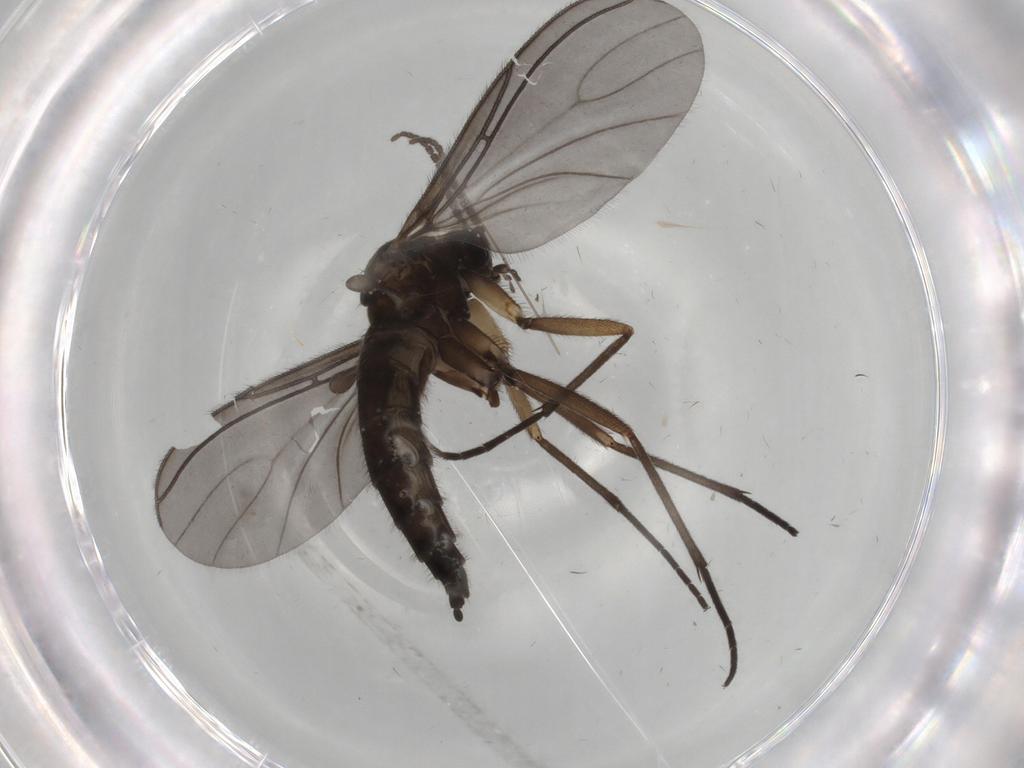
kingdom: Animalia
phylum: Arthropoda
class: Insecta
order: Diptera
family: Sciaridae
